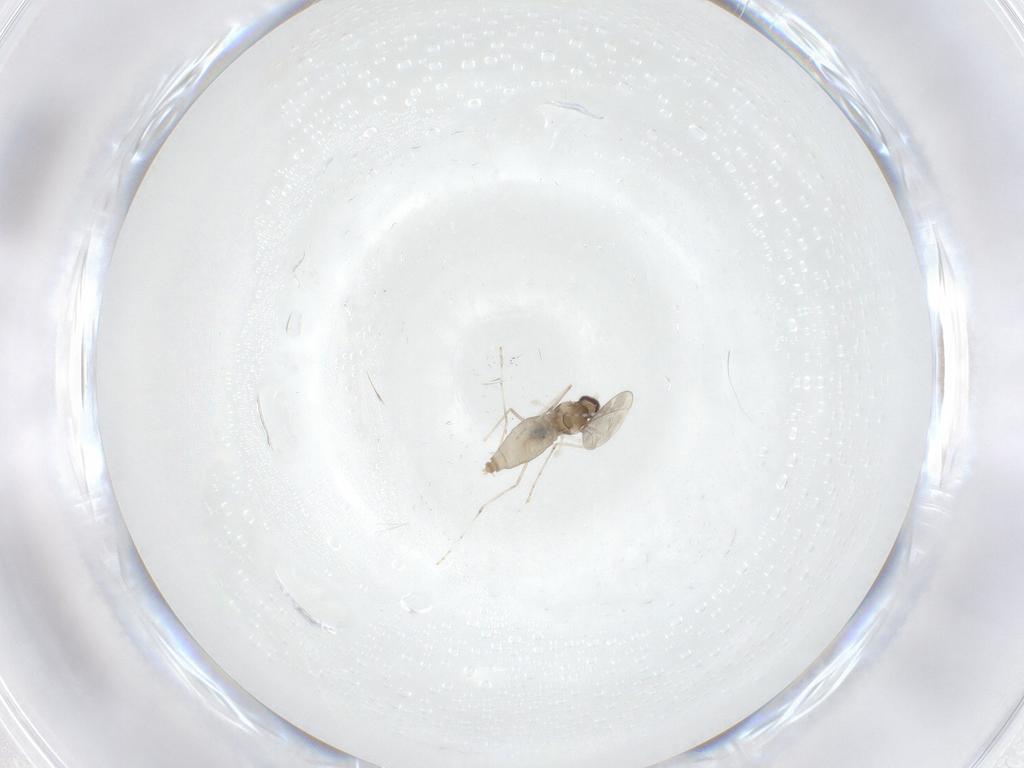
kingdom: Animalia
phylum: Arthropoda
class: Insecta
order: Diptera
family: Cecidomyiidae
